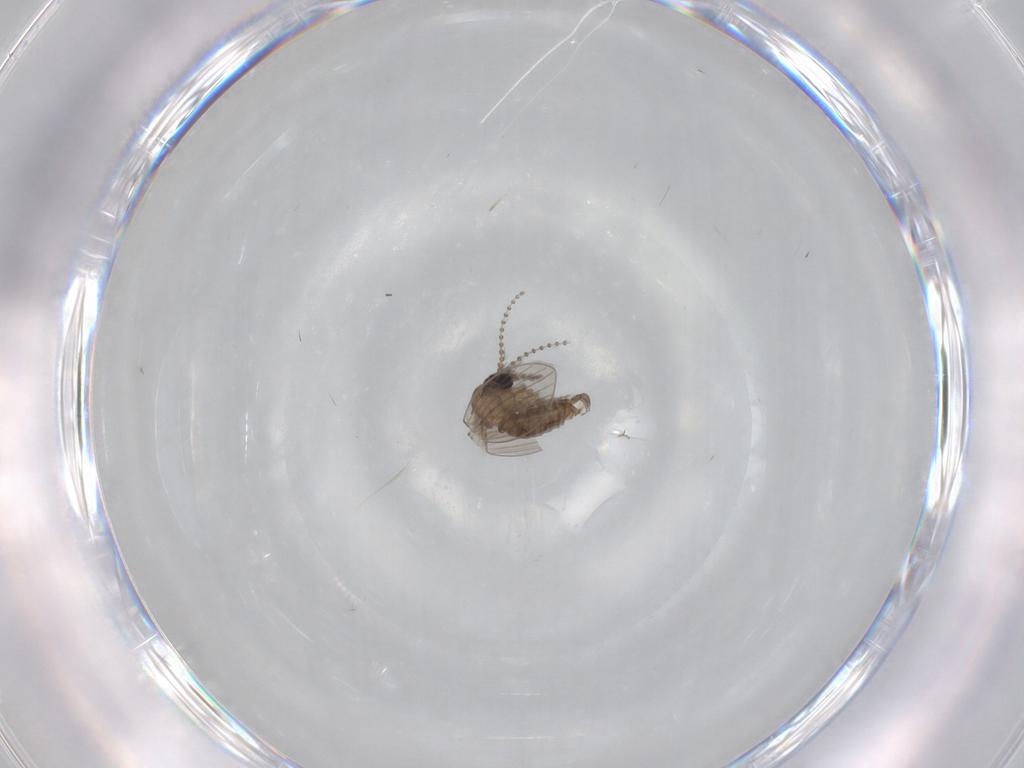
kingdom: Animalia
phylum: Arthropoda
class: Insecta
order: Diptera
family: Psychodidae
